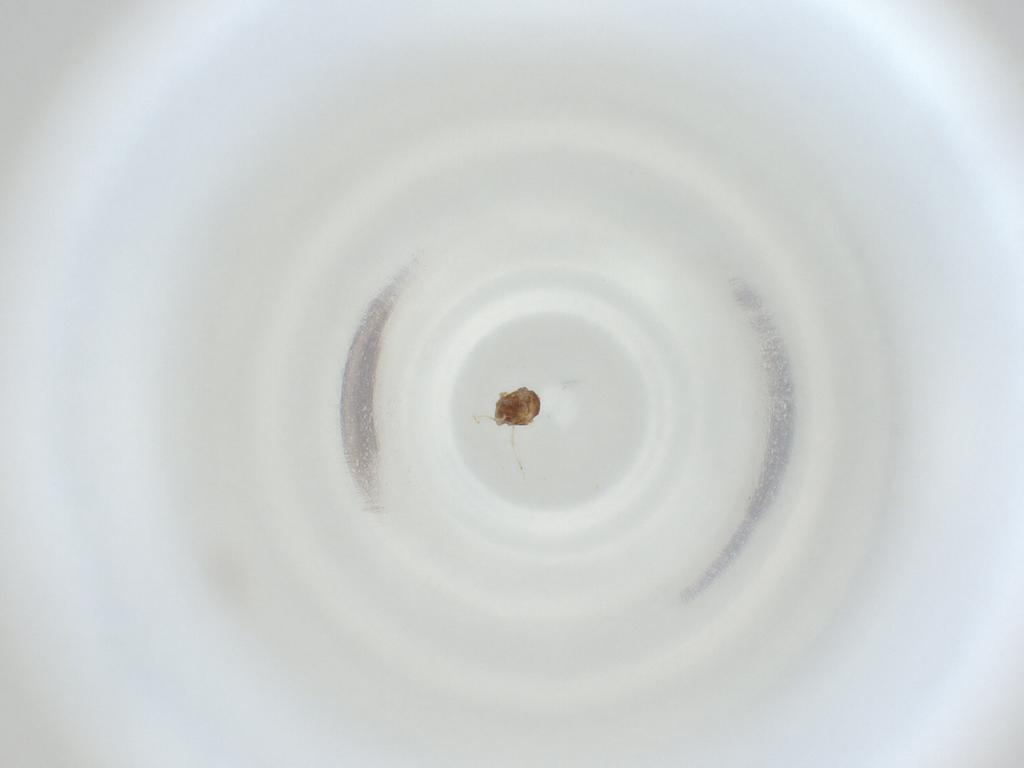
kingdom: Animalia
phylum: Arthropoda
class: Insecta
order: Diptera
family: Cecidomyiidae
